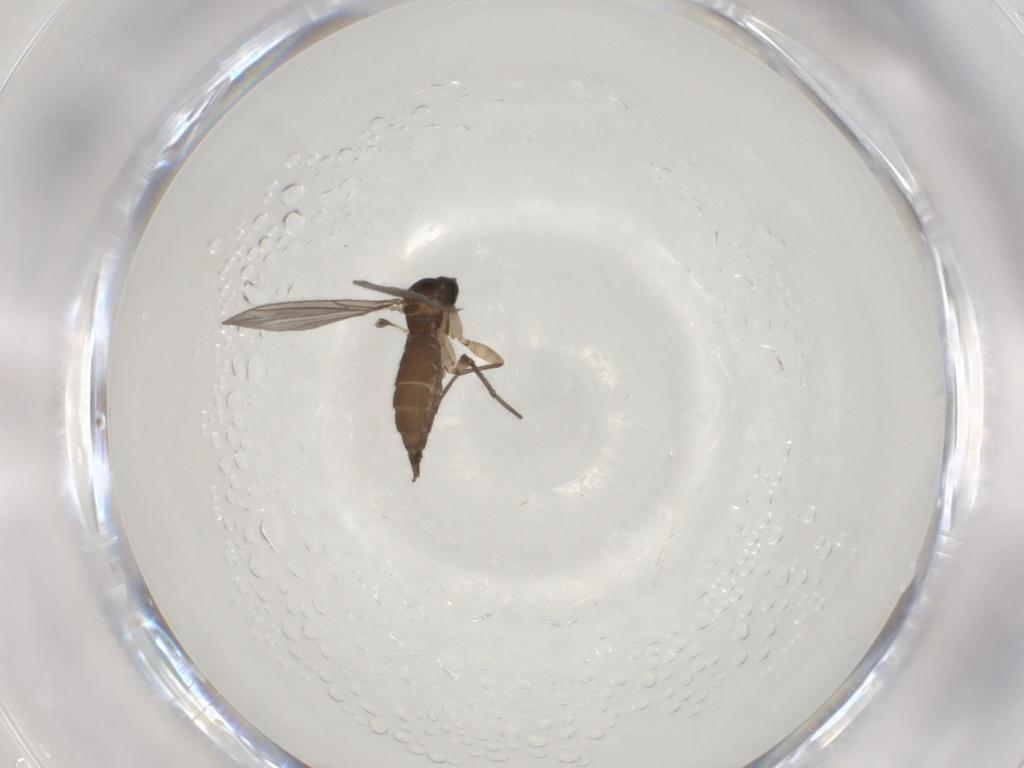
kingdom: Animalia
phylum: Arthropoda
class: Insecta
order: Diptera
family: Sciaridae
